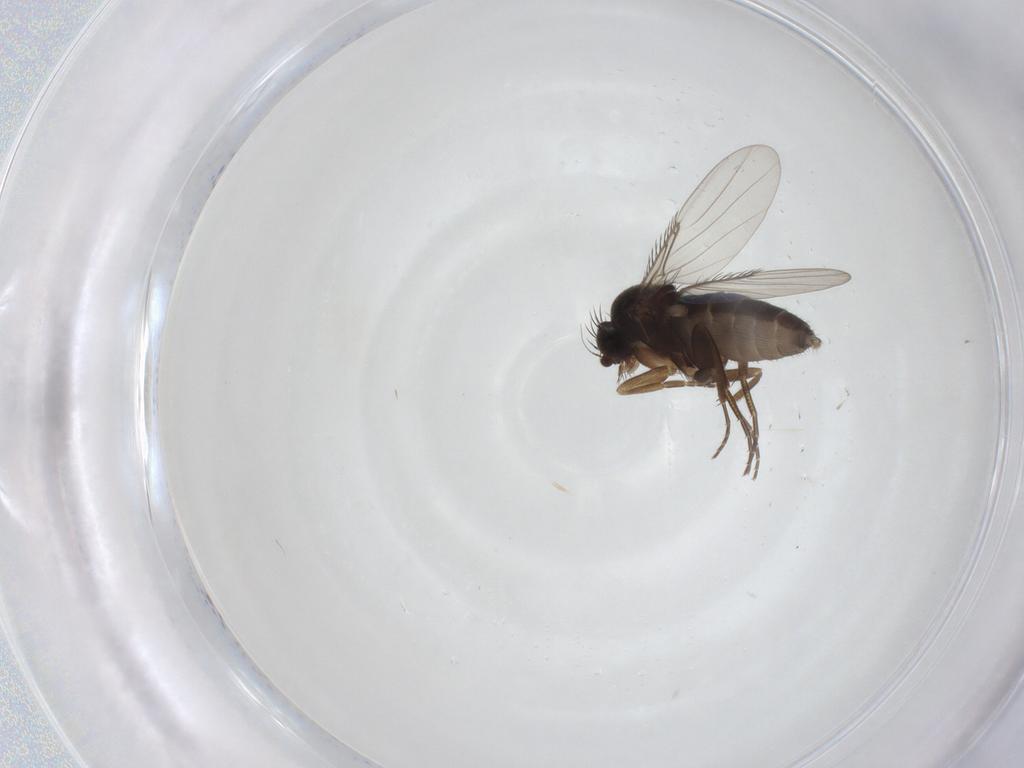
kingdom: Animalia
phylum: Arthropoda
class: Insecta
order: Diptera
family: Phoridae
